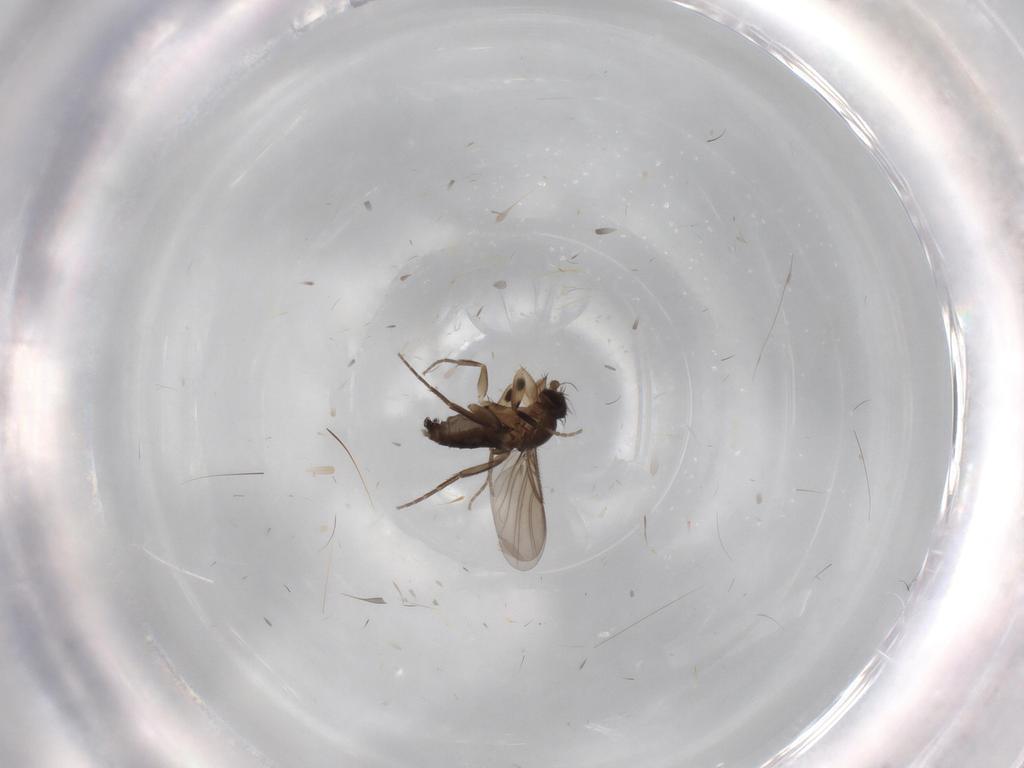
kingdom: Animalia
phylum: Arthropoda
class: Insecta
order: Diptera
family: Phoridae
